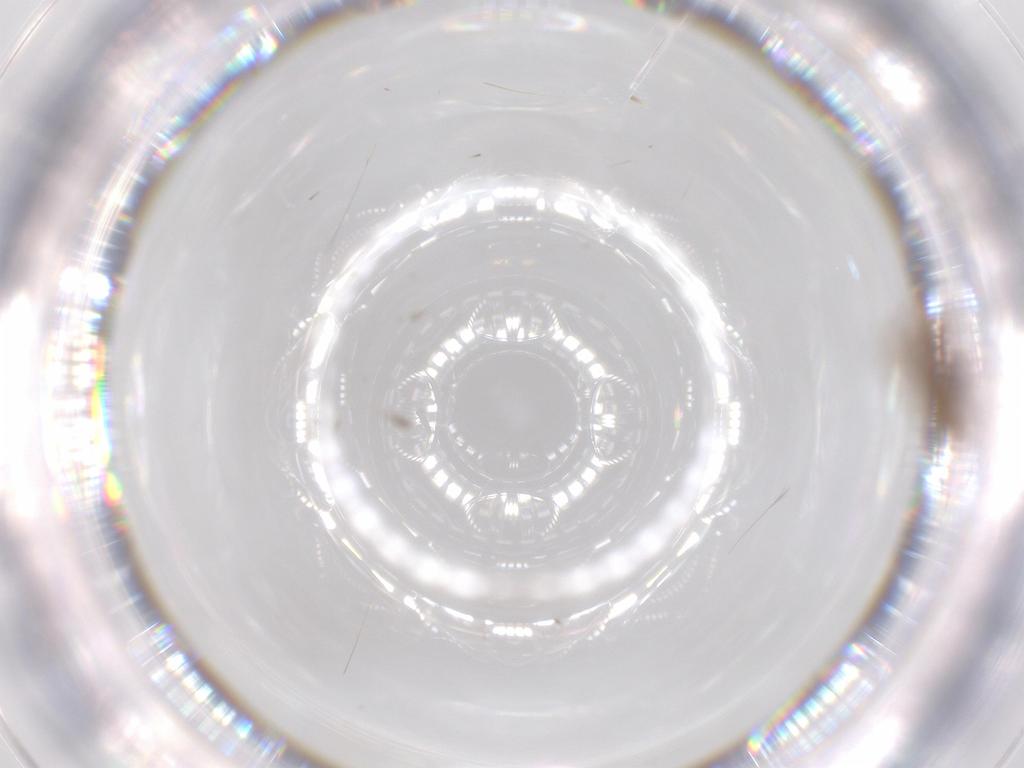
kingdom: Animalia
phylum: Arthropoda
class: Insecta
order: Diptera
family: Chironomidae
